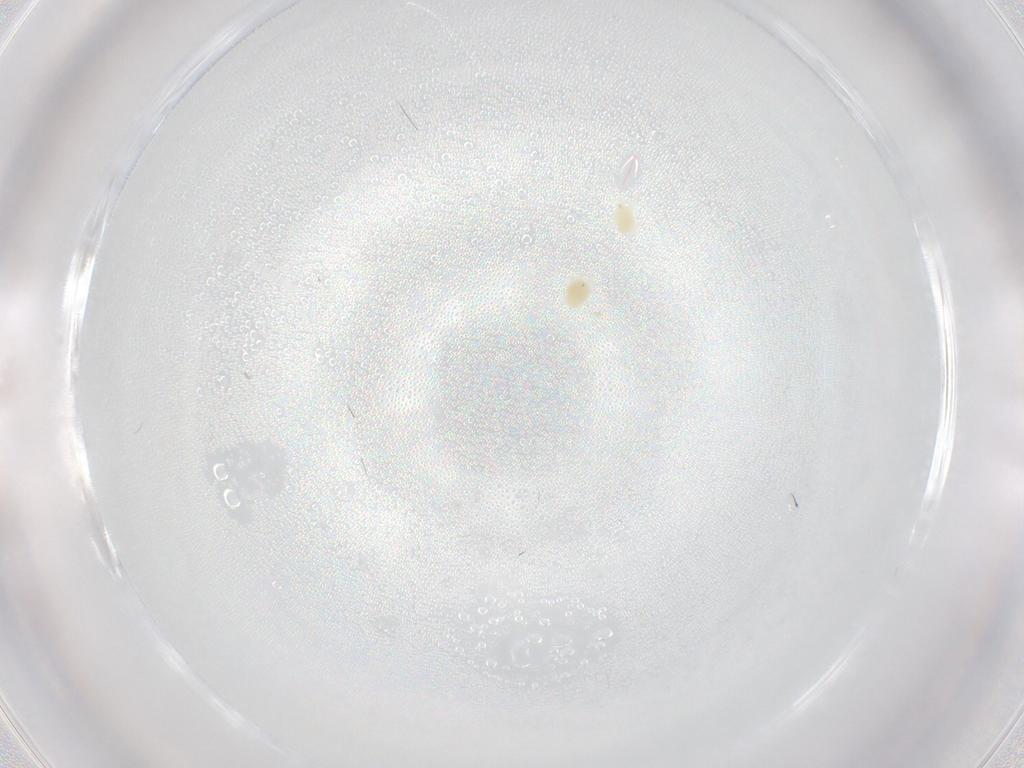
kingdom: Animalia
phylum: Arthropoda
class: Arachnida
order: Trombidiformes
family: Tetranychidae
